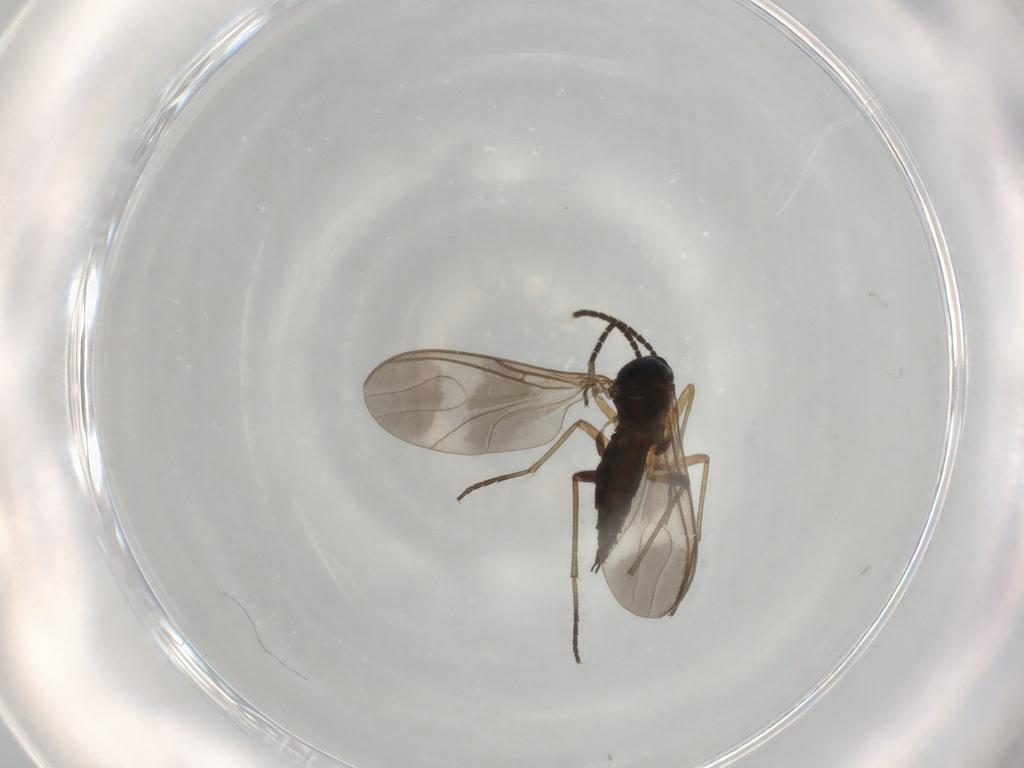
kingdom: Animalia
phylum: Arthropoda
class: Insecta
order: Diptera
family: Sciaridae
